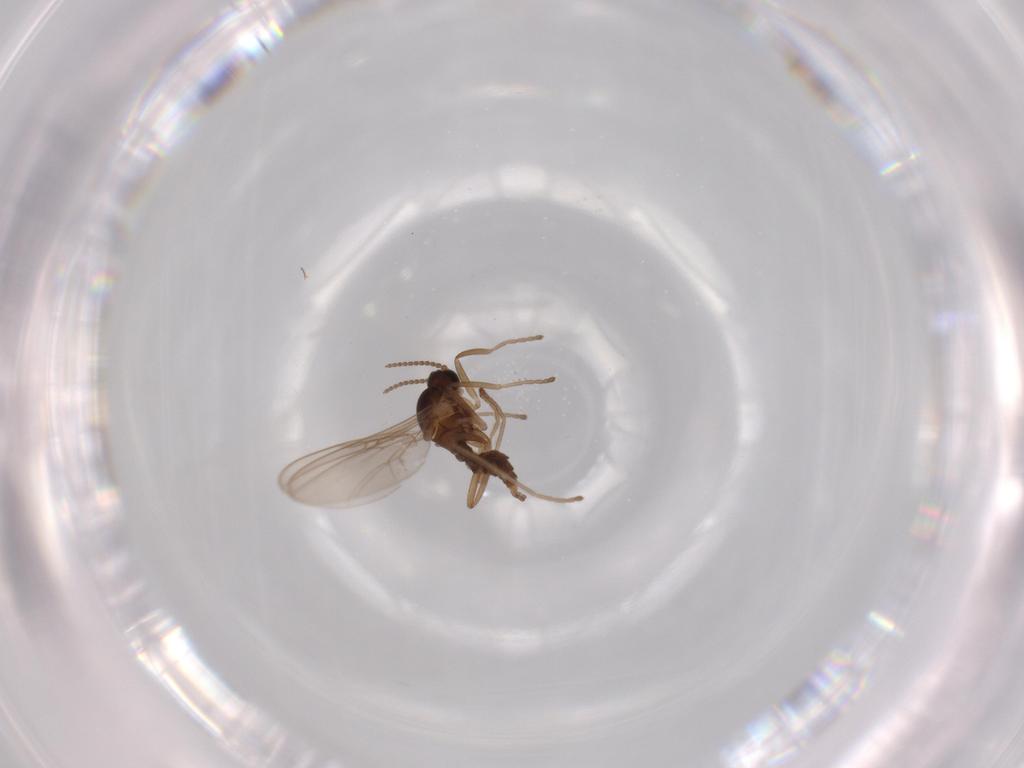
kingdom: Animalia
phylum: Arthropoda
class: Insecta
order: Diptera
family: Cecidomyiidae
